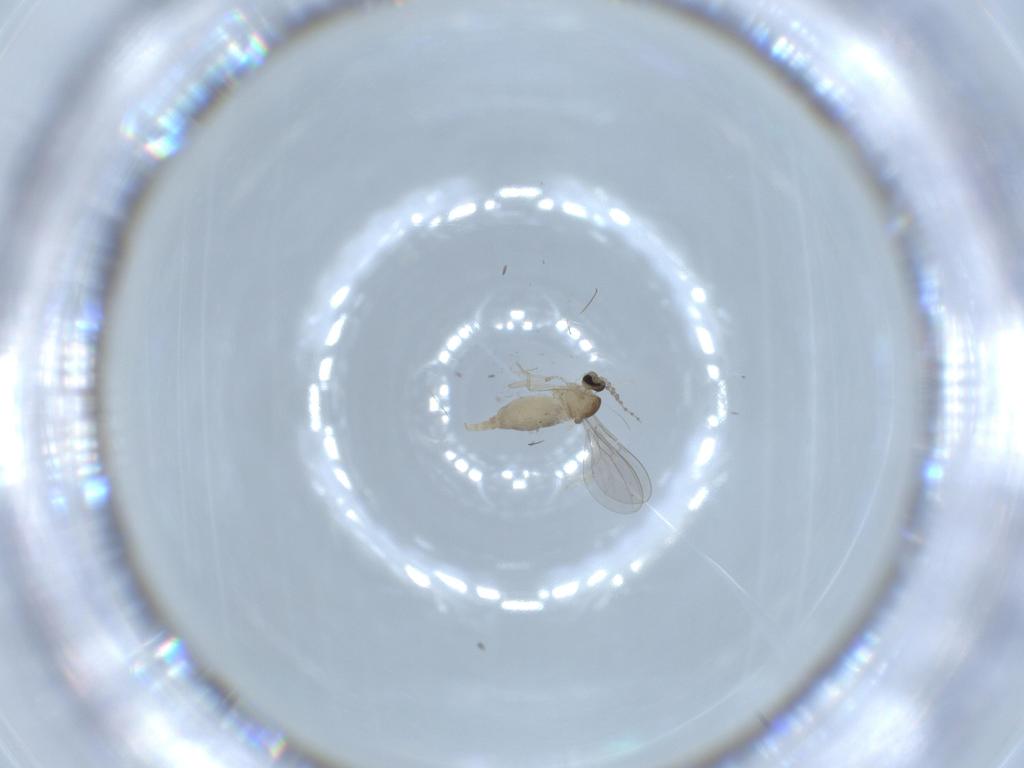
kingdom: Animalia
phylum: Arthropoda
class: Insecta
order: Diptera
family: Cecidomyiidae
